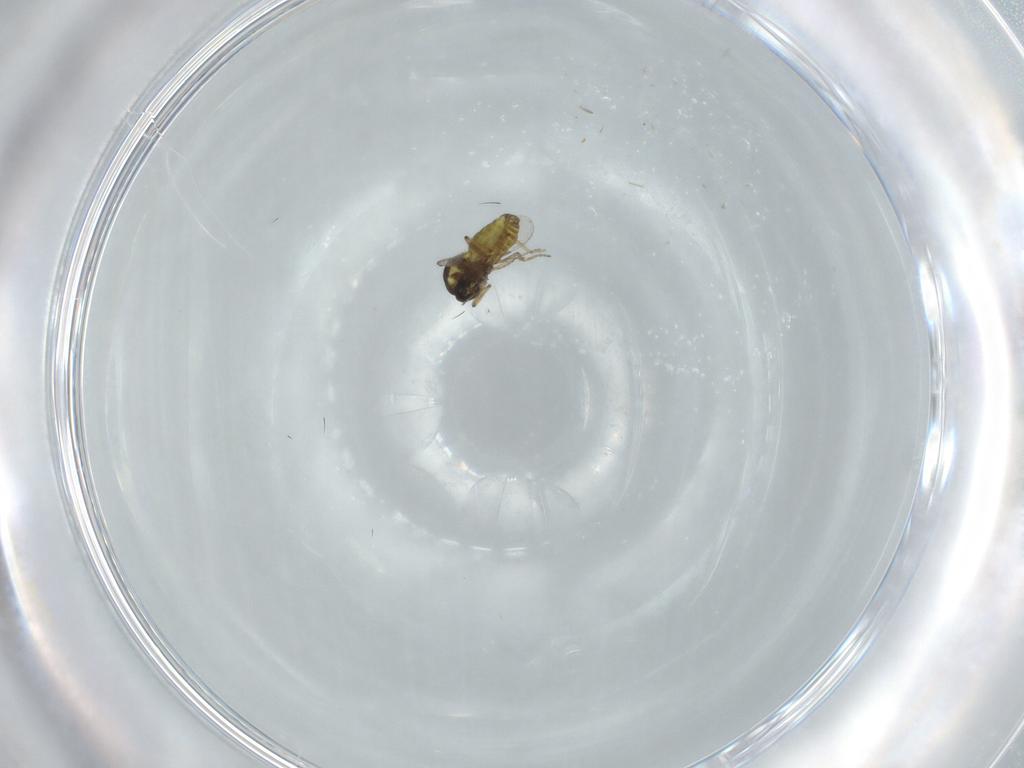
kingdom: Animalia
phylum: Arthropoda
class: Insecta
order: Diptera
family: Ceratopogonidae
